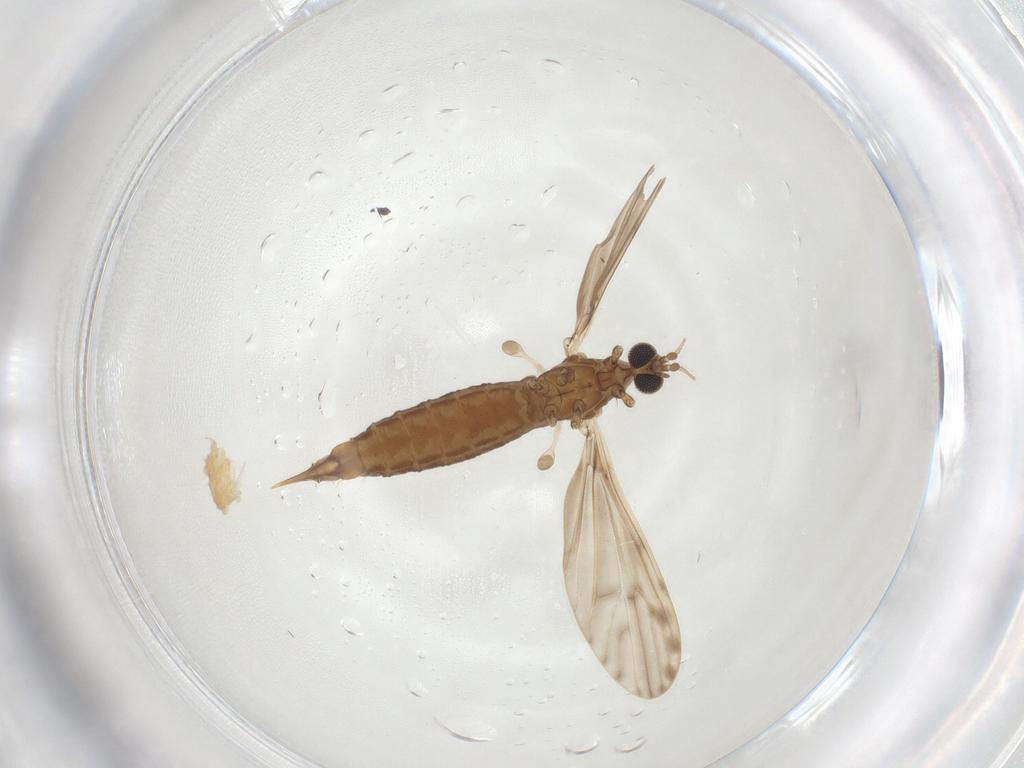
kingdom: Animalia
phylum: Arthropoda
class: Insecta
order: Diptera
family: Limoniidae
